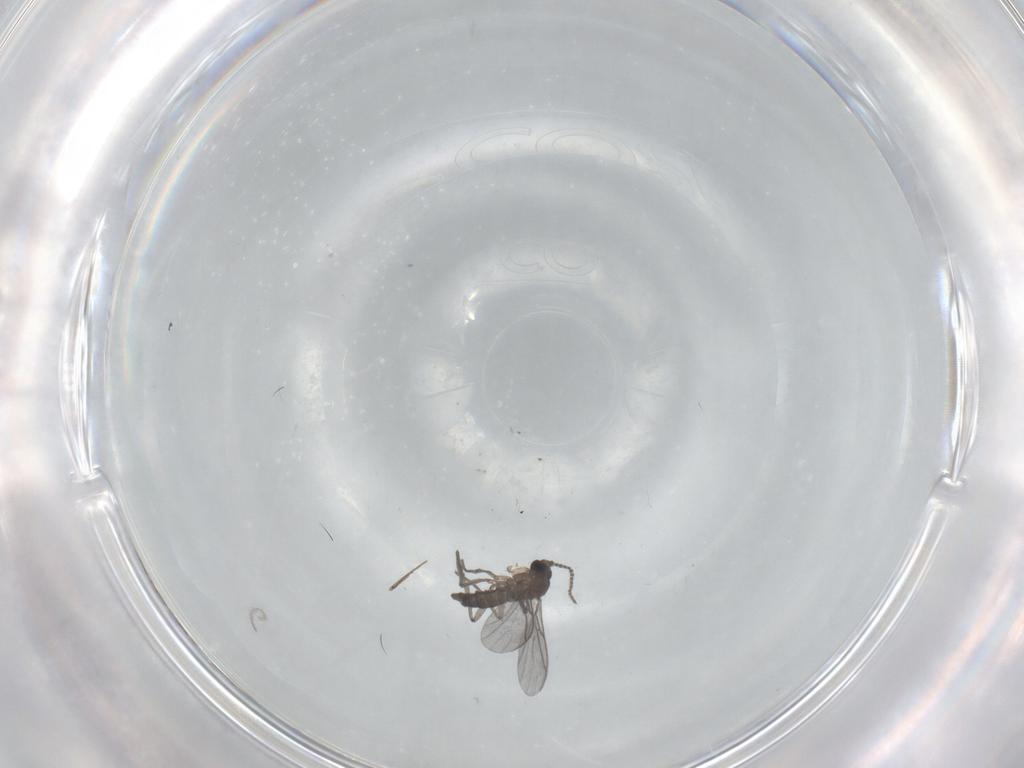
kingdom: Animalia
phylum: Arthropoda
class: Insecta
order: Diptera
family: Sciaridae
